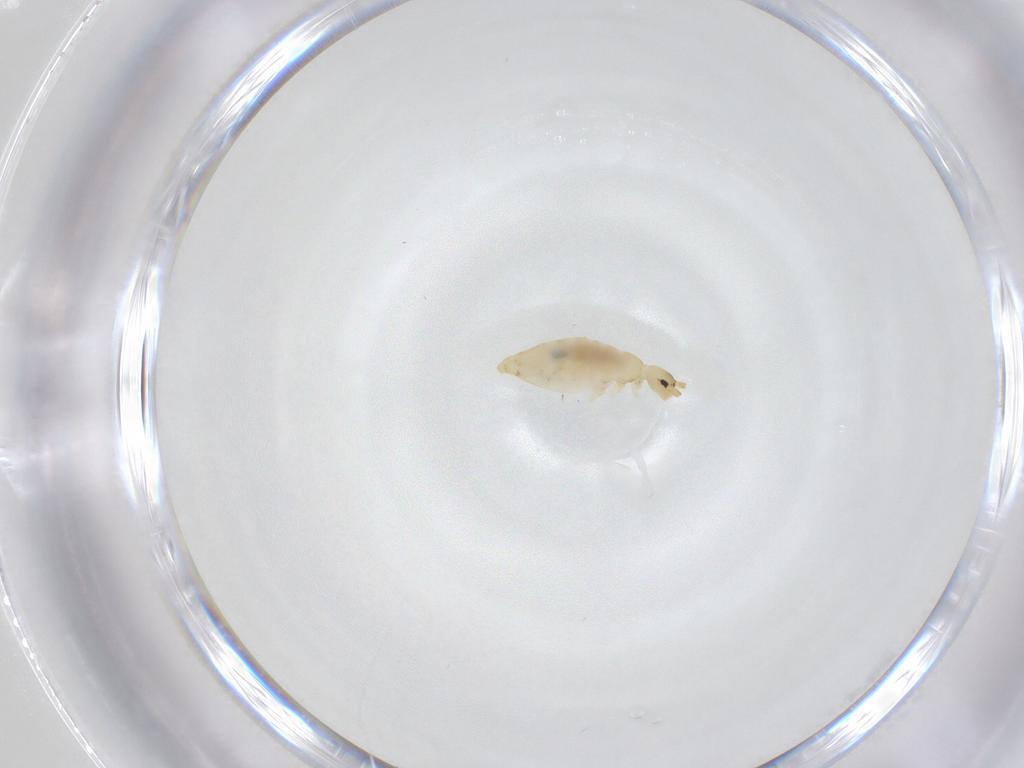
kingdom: Animalia
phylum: Arthropoda
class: Collembola
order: Entomobryomorpha
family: Entomobryidae
